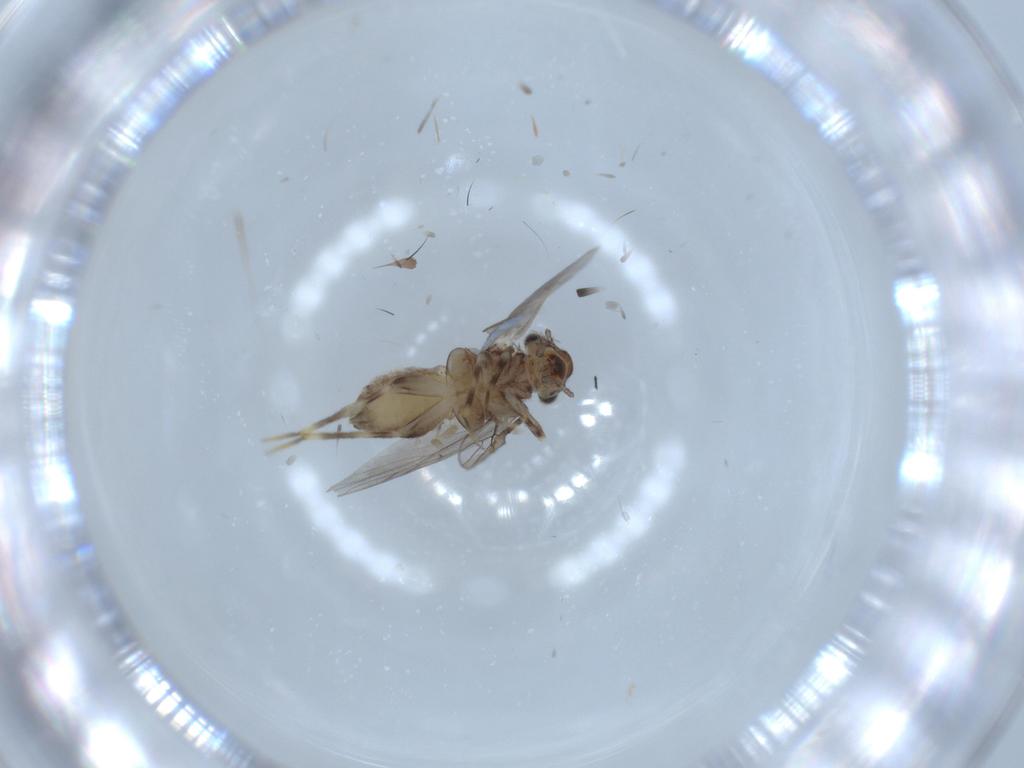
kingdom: Animalia
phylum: Arthropoda
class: Insecta
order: Psocodea
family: Lepidopsocidae
